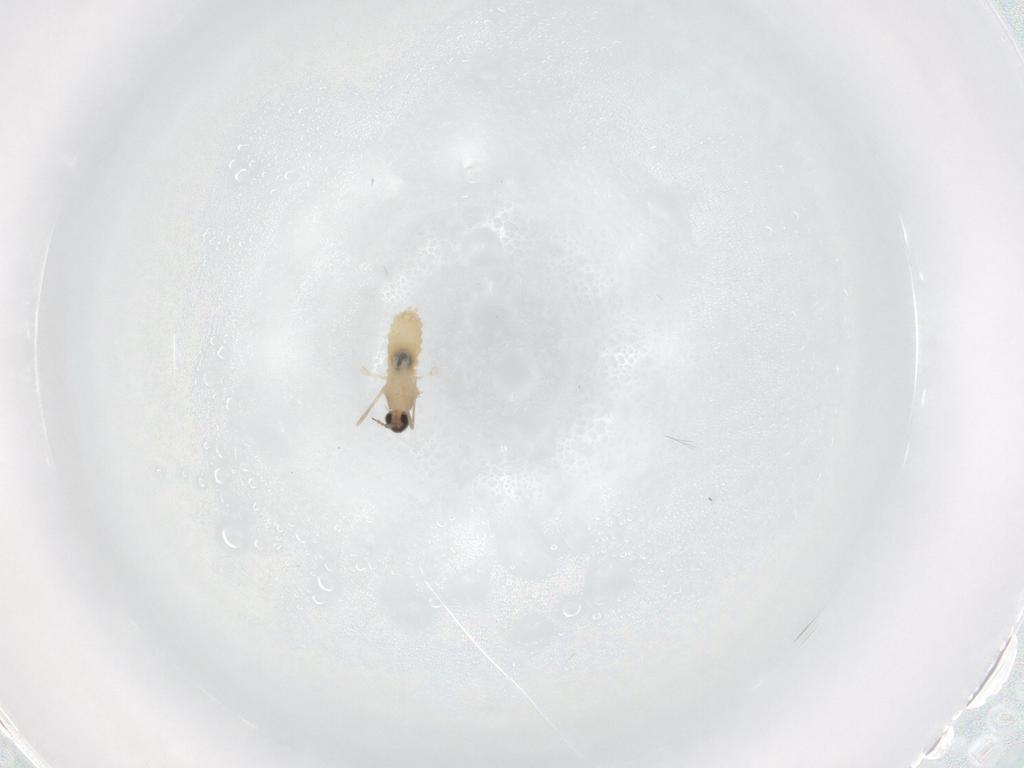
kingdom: Animalia
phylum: Arthropoda
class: Insecta
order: Diptera
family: Cecidomyiidae
